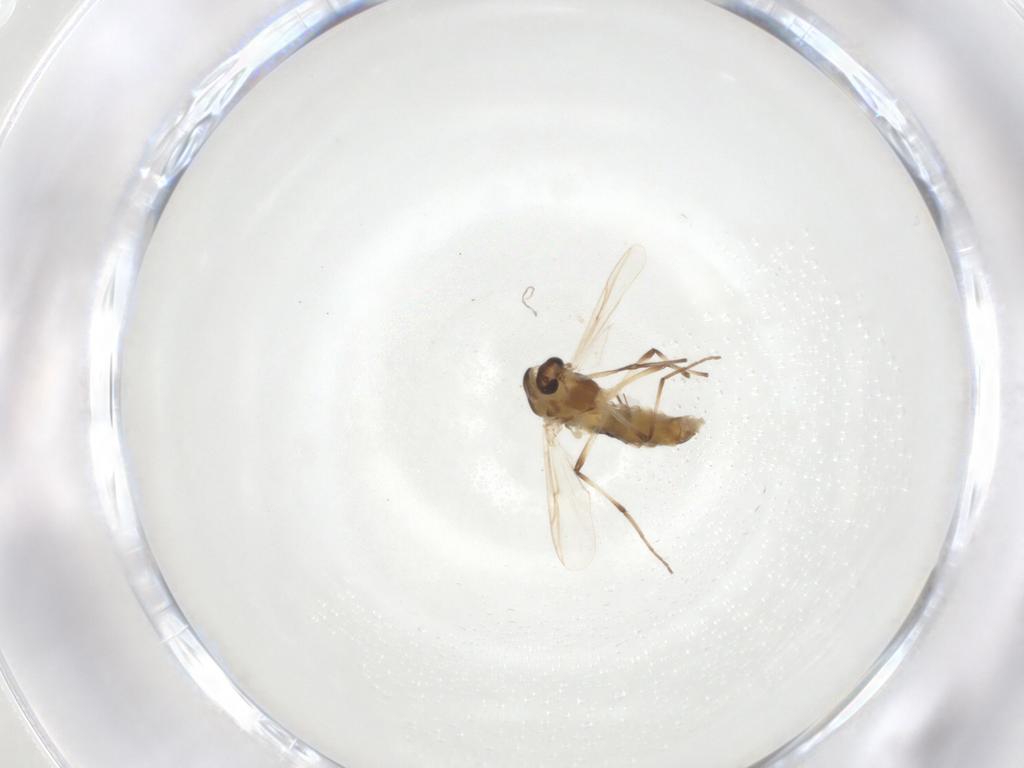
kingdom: Animalia
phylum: Arthropoda
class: Insecta
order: Diptera
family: Chironomidae
